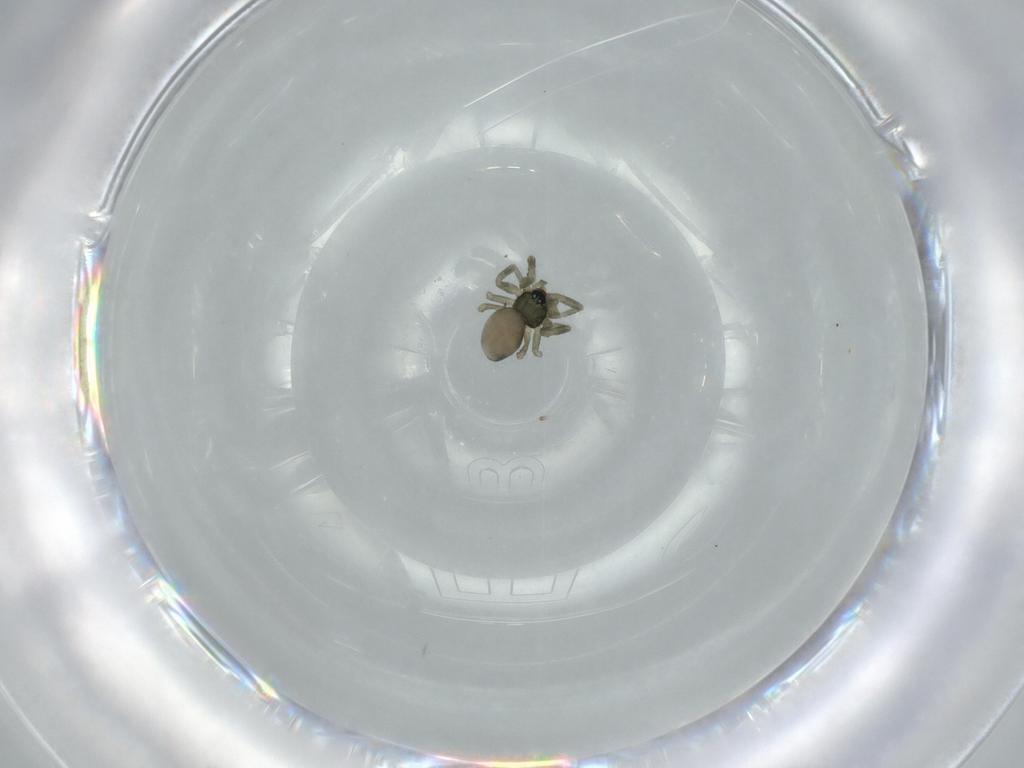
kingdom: Animalia
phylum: Arthropoda
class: Arachnida
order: Araneae
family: Linyphiidae
